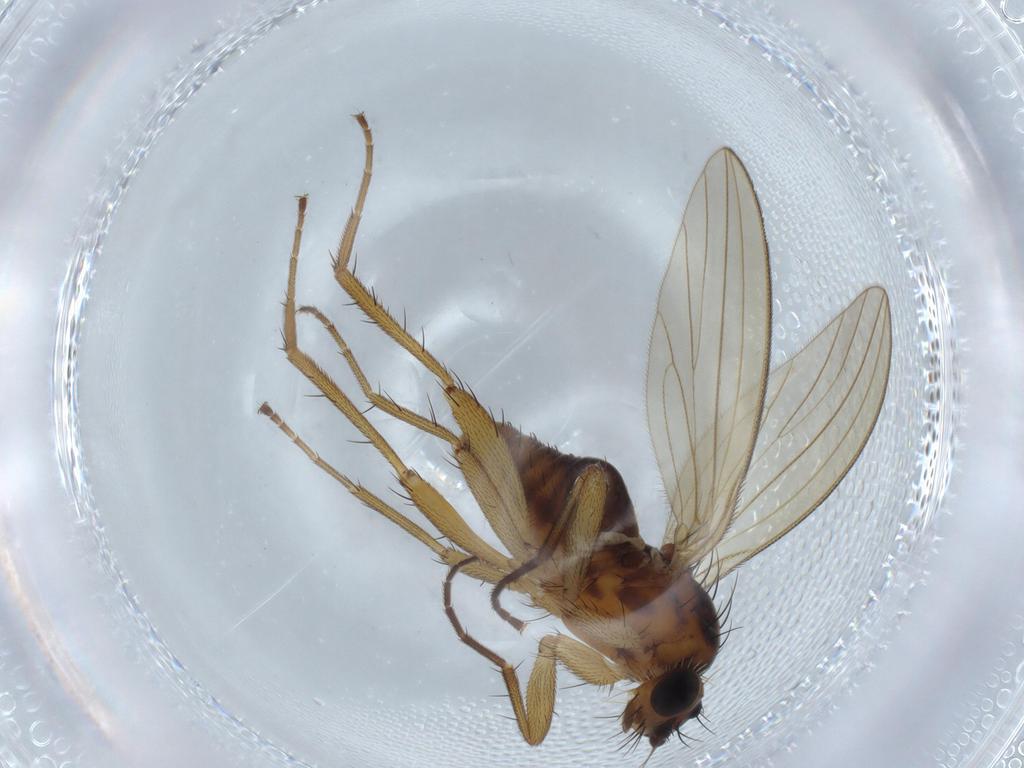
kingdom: Animalia
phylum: Arthropoda
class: Insecta
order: Diptera
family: Lonchopteridae
